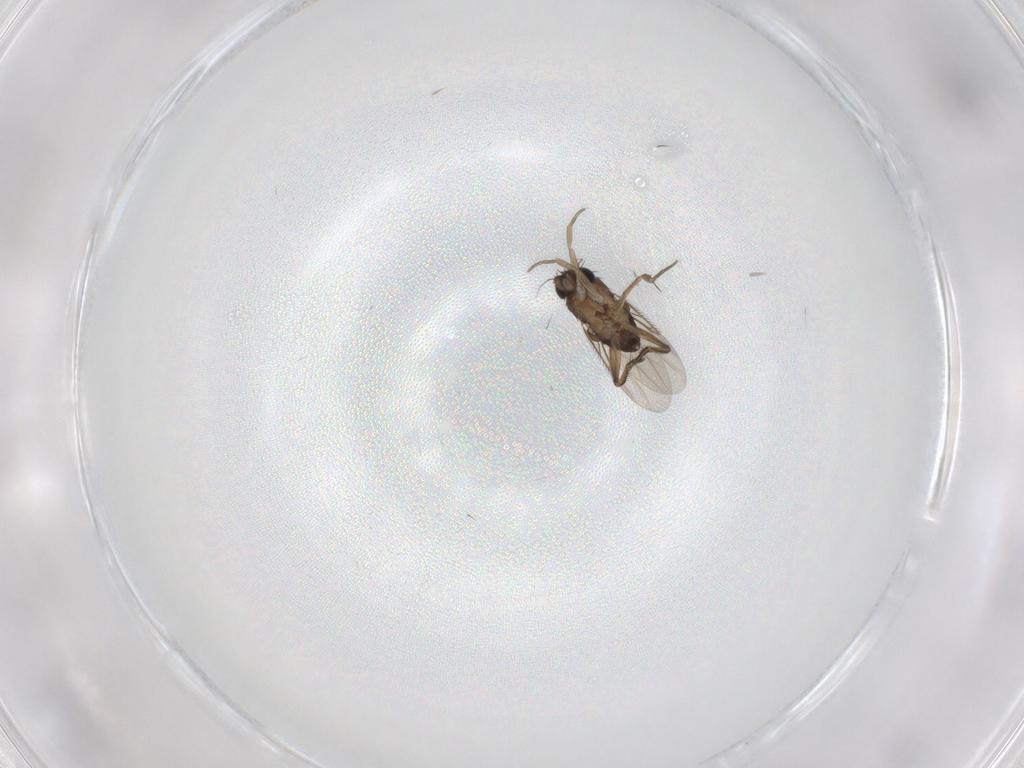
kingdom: Animalia
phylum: Arthropoda
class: Insecta
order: Diptera
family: Phoridae
